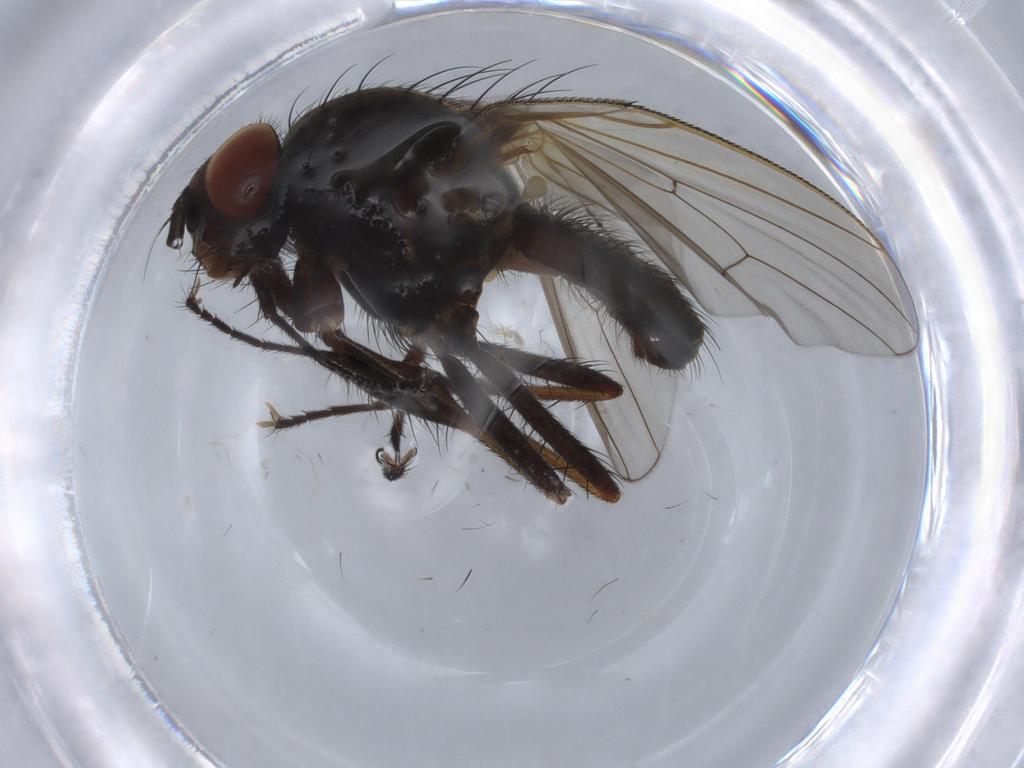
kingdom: Animalia
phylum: Arthropoda
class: Insecta
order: Diptera
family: Anthomyiidae
